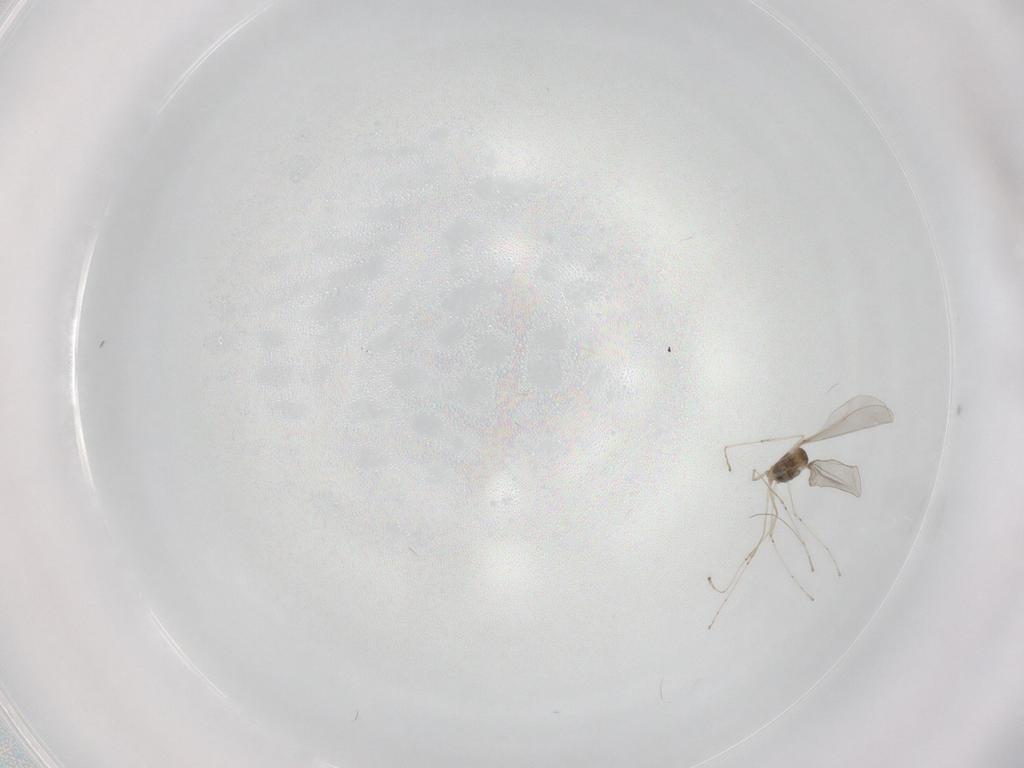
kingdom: Animalia
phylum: Arthropoda
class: Insecta
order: Diptera
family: Cecidomyiidae
